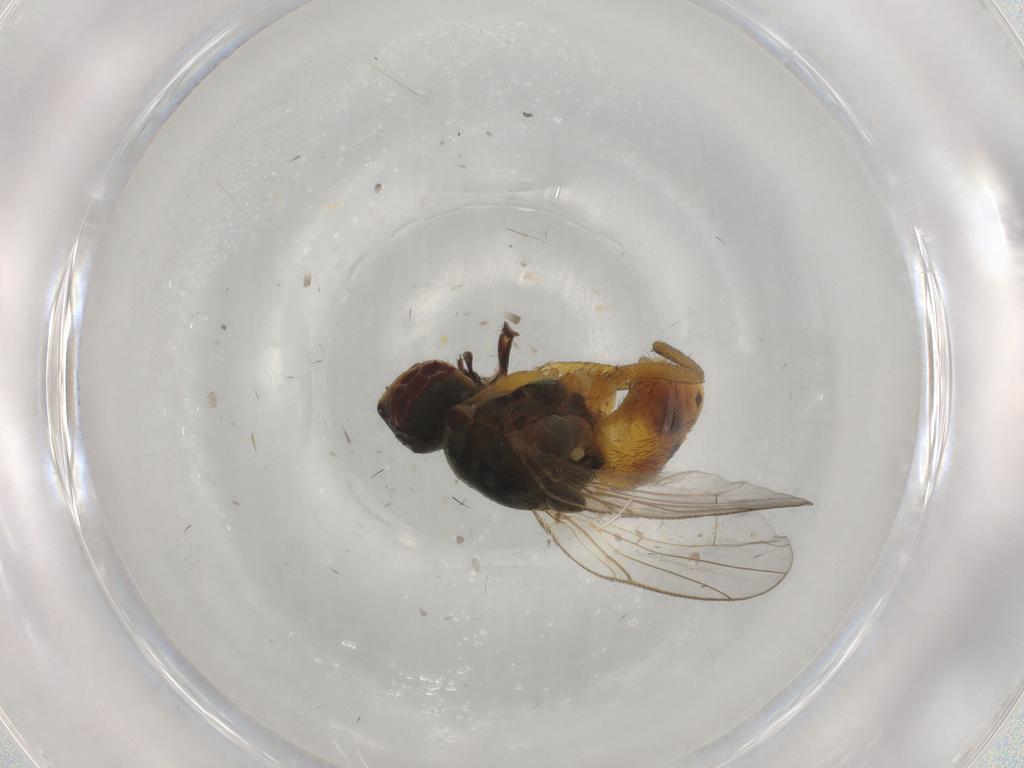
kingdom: Animalia
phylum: Arthropoda
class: Insecta
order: Diptera
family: Muscidae
